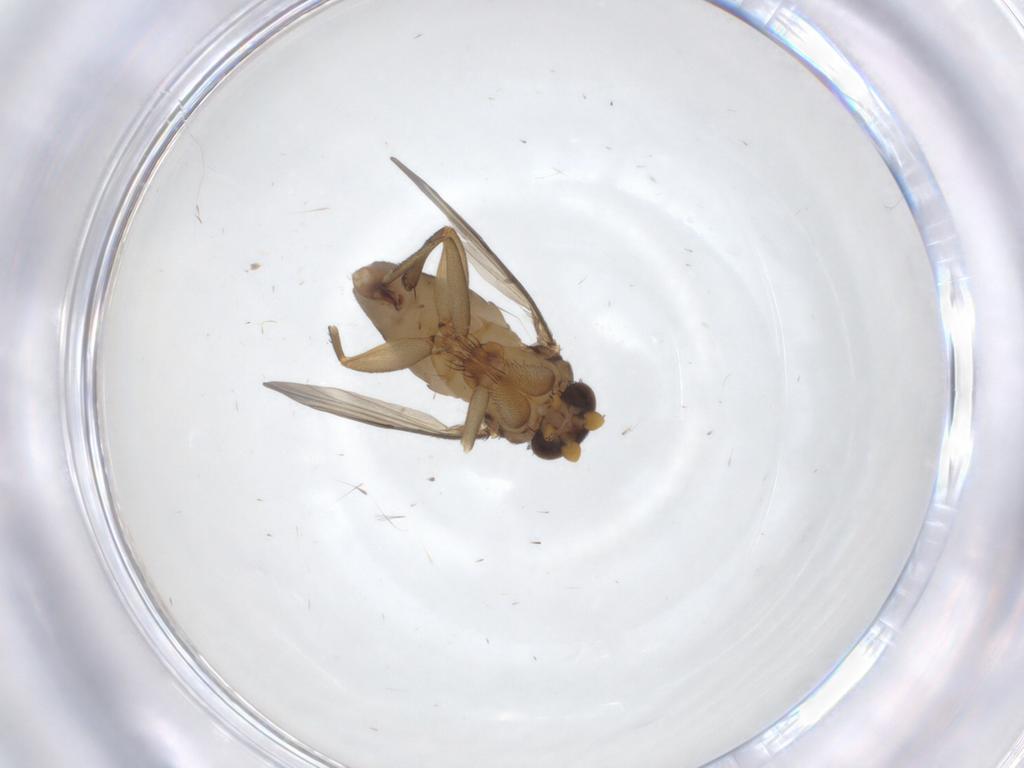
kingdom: Animalia
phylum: Arthropoda
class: Insecta
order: Diptera
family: Phoridae
